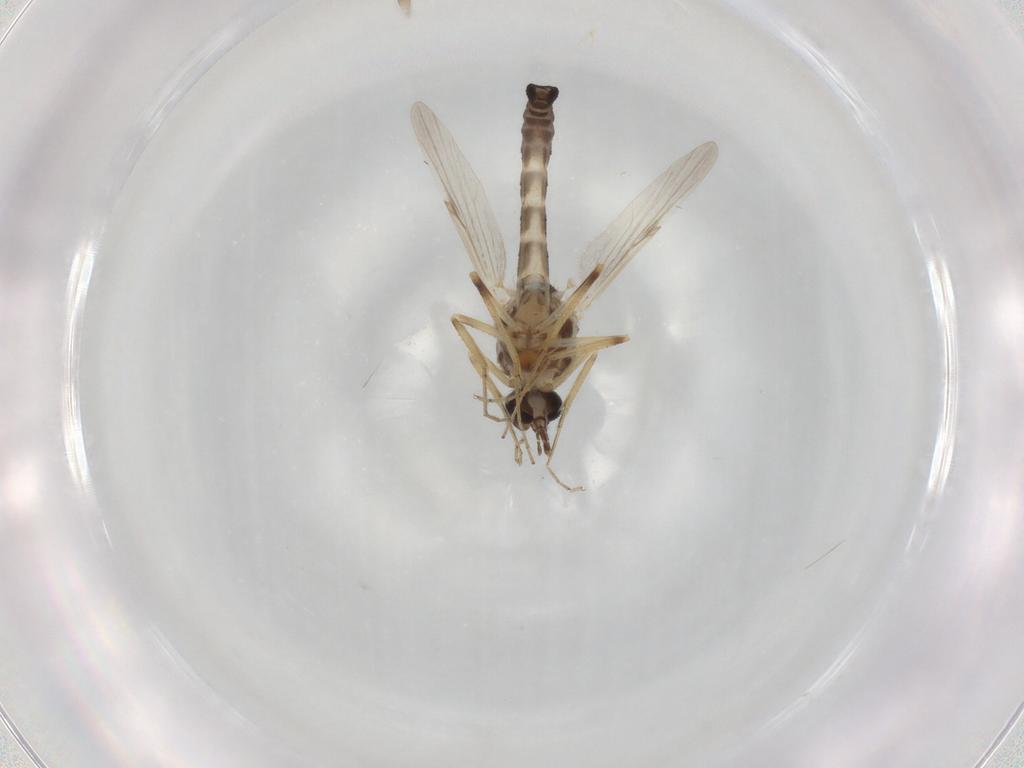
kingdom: Animalia
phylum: Arthropoda
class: Insecta
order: Diptera
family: Ceratopogonidae
